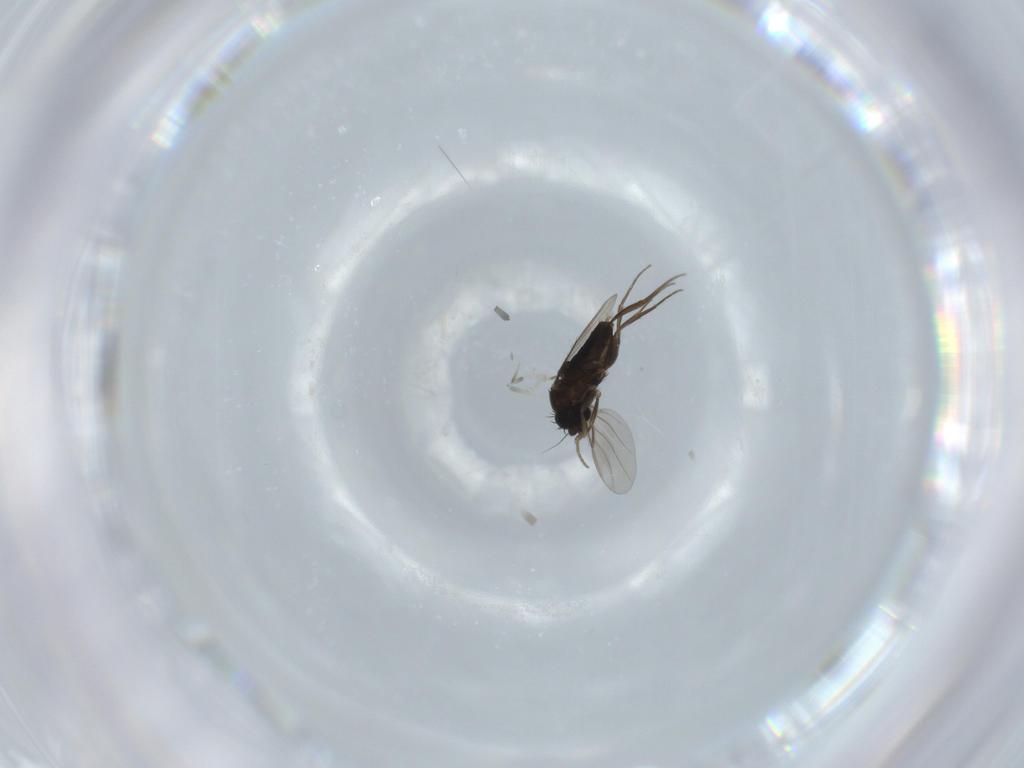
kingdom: Animalia
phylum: Arthropoda
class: Insecta
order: Diptera
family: Phoridae
